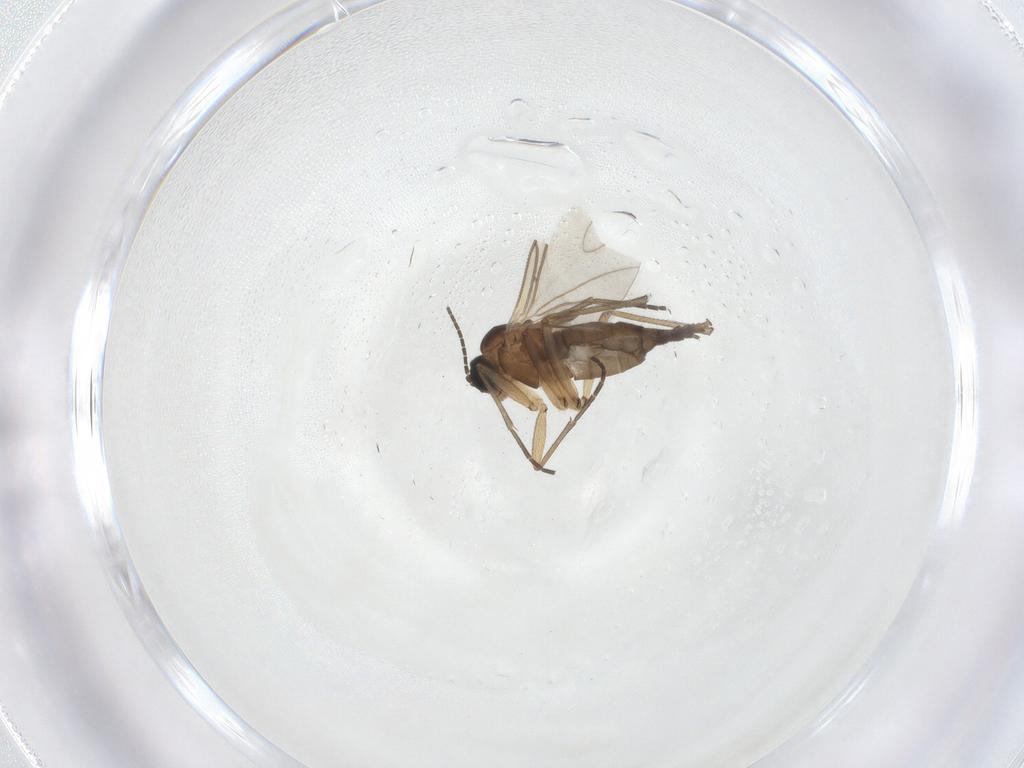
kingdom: Animalia
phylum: Arthropoda
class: Insecta
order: Diptera
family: Sciaridae
